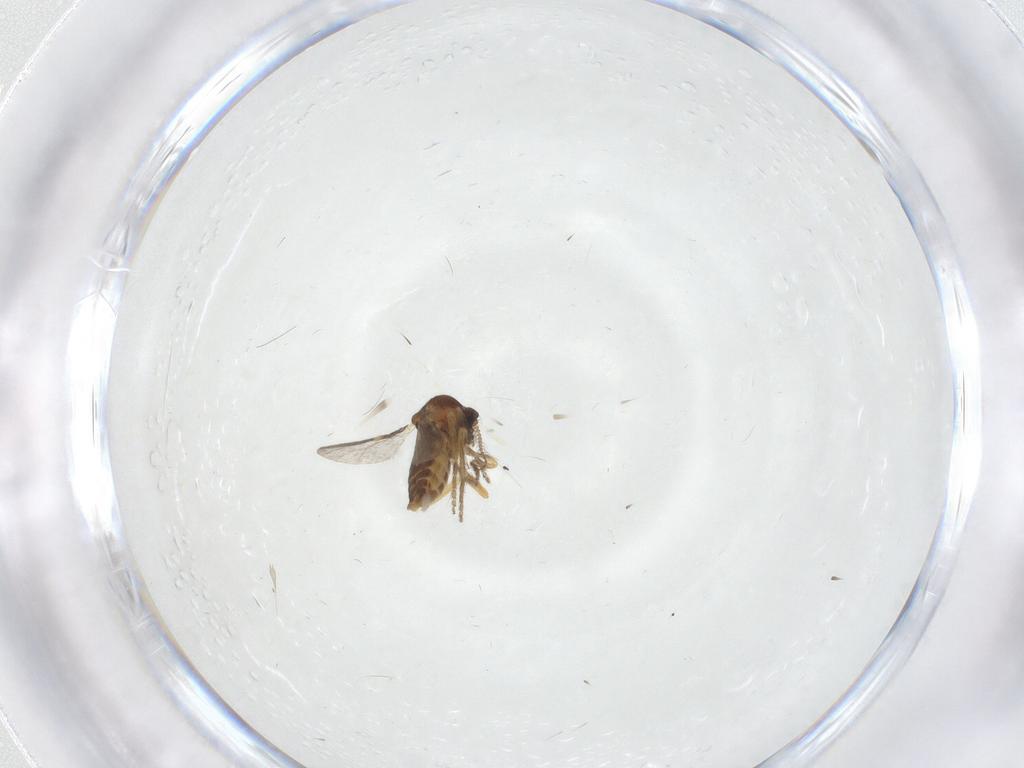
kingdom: Animalia
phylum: Arthropoda
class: Insecta
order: Diptera
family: Ceratopogonidae
